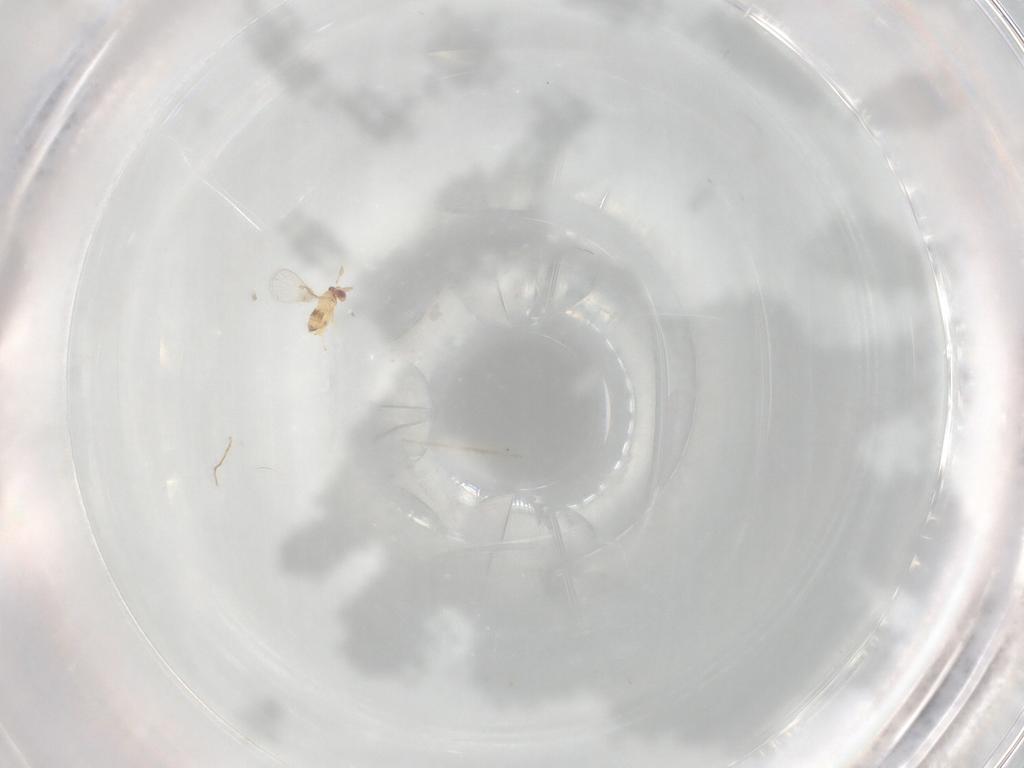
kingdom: Animalia
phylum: Arthropoda
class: Insecta
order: Hymenoptera
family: Trichogrammatidae
